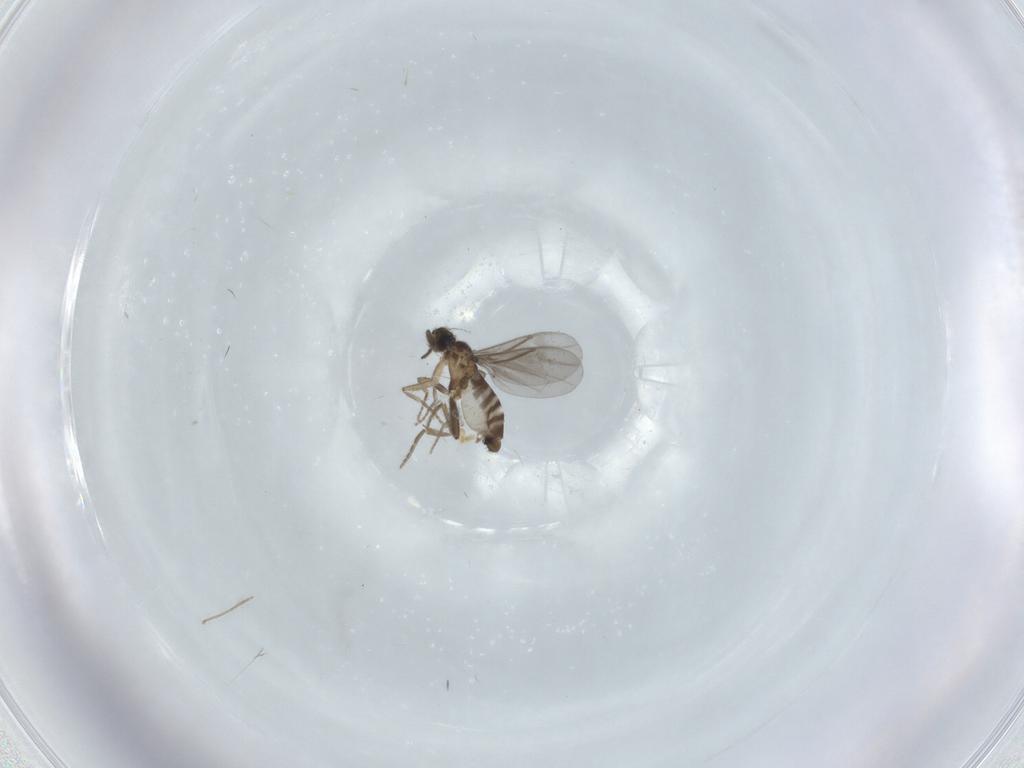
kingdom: Animalia
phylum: Arthropoda
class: Insecta
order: Diptera
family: Chironomidae
